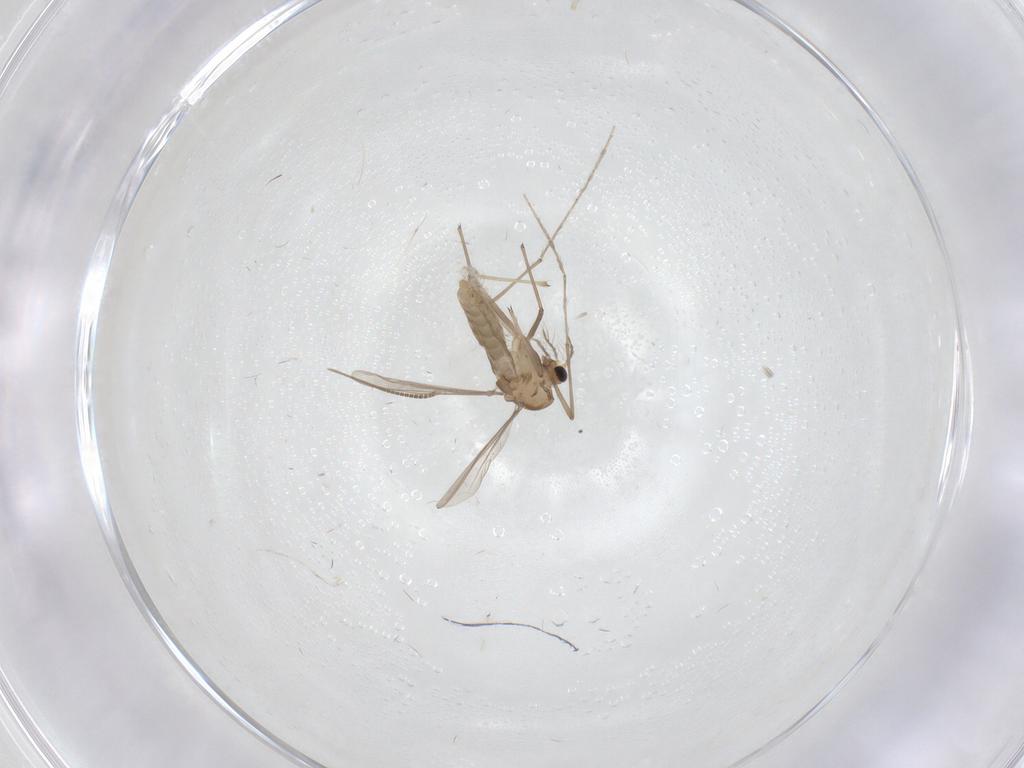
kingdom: Animalia
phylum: Arthropoda
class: Insecta
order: Diptera
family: Chironomidae
